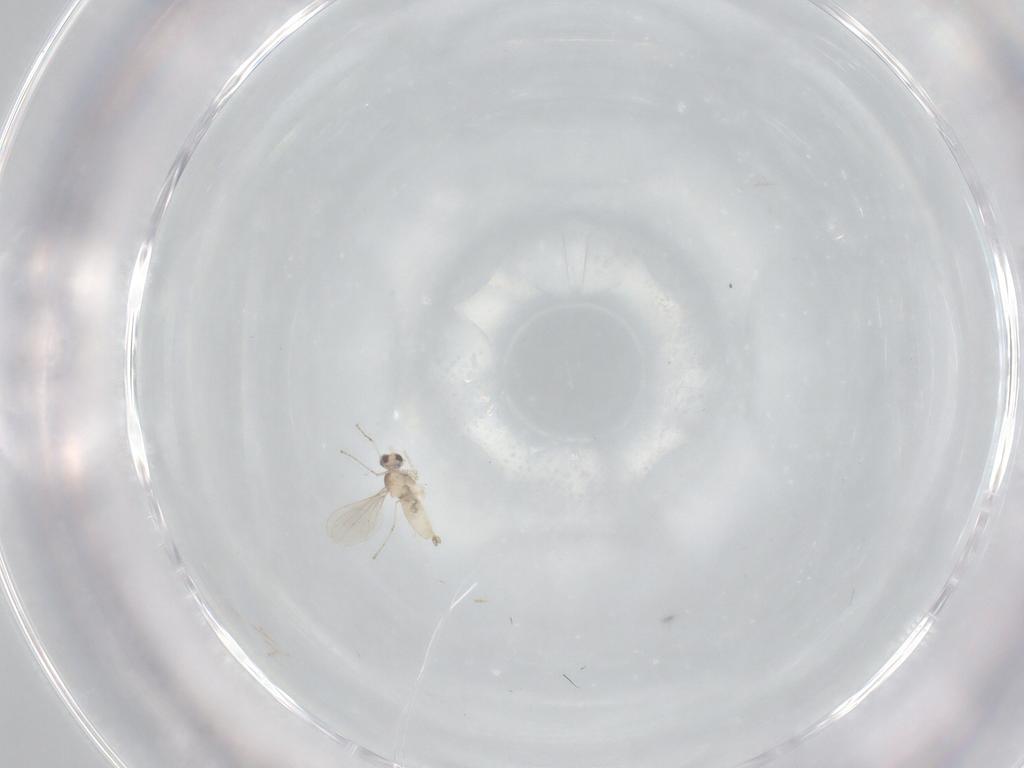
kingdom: Animalia
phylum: Arthropoda
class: Insecta
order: Diptera
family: Cecidomyiidae
